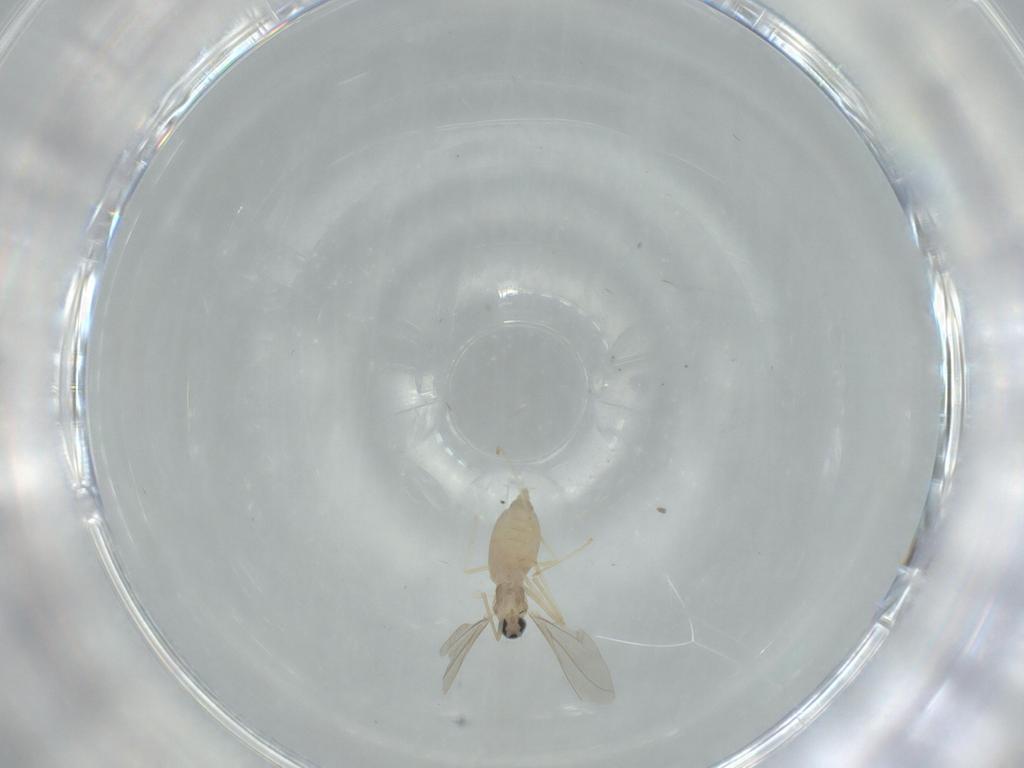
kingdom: Animalia
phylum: Arthropoda
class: Insecta
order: Diptera
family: Cecidomyiidae
